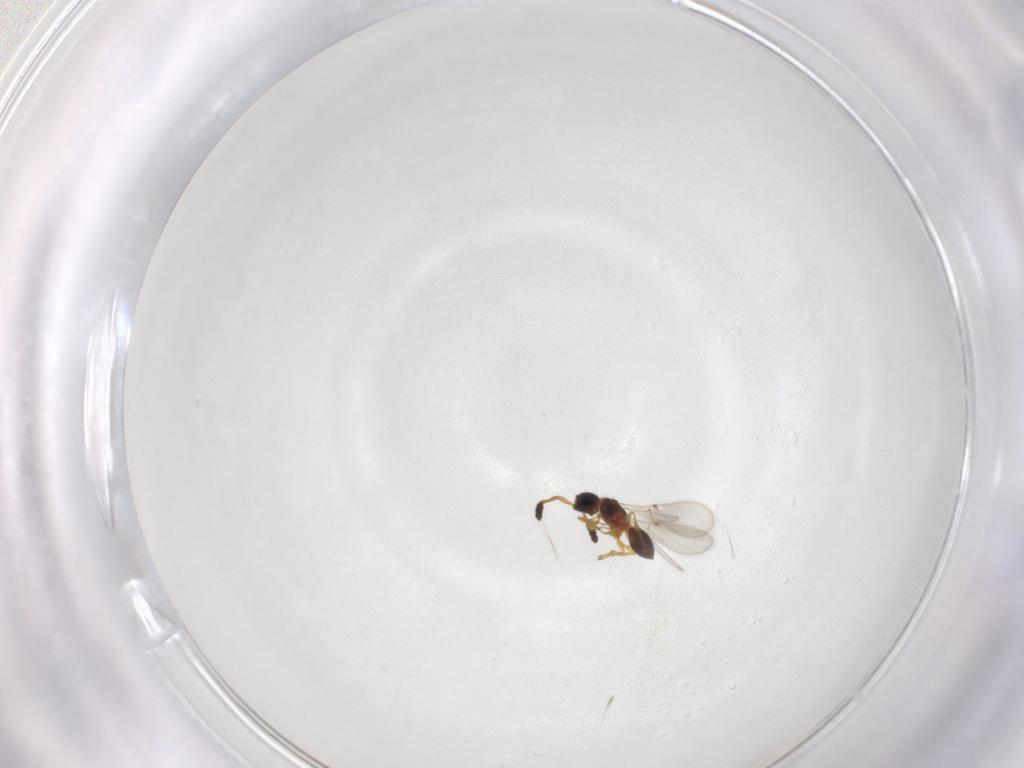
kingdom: Animalia
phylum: Arthropoda
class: Insecta
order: Hymenoptera
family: Diapriidae
